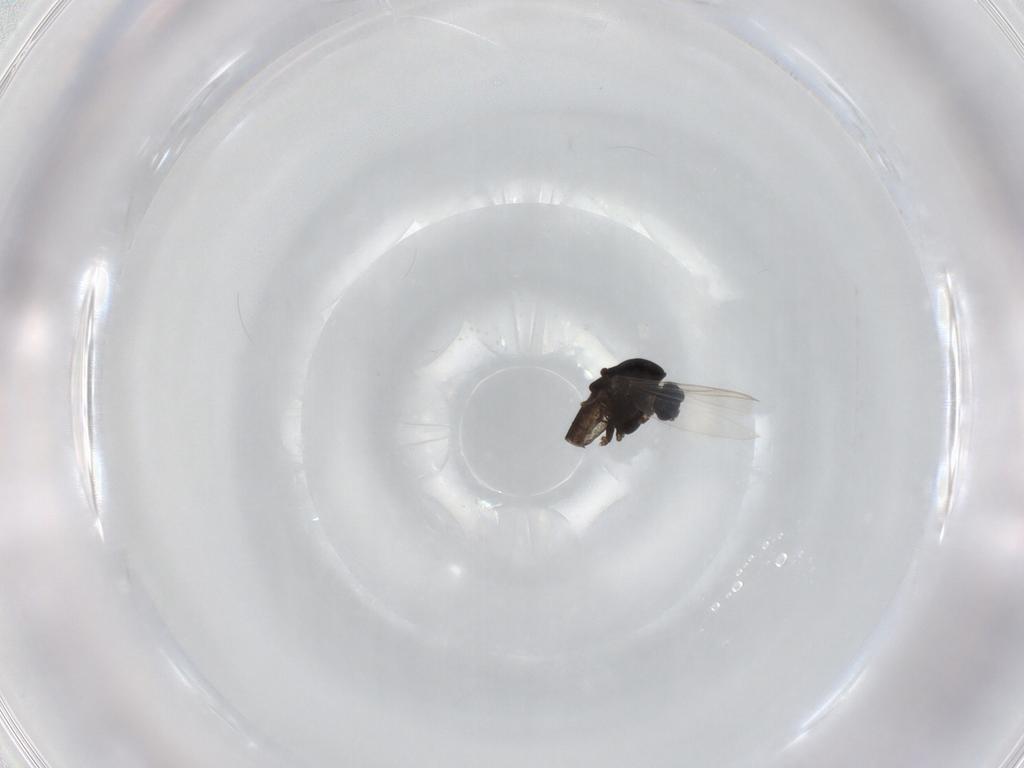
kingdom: Animalia
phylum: Arthropoda
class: Insecta
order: Diptera
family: Chironomidae
